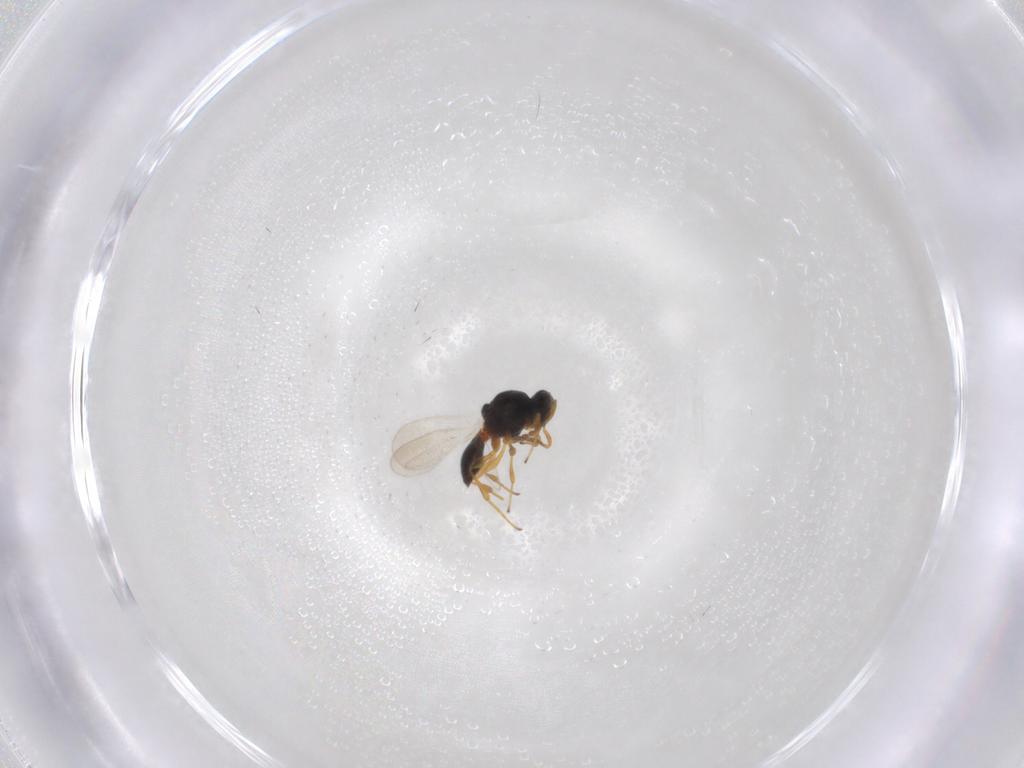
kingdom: Animalia
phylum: Arthropoda
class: Insecta
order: Hymenoptera
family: Platygastridae
